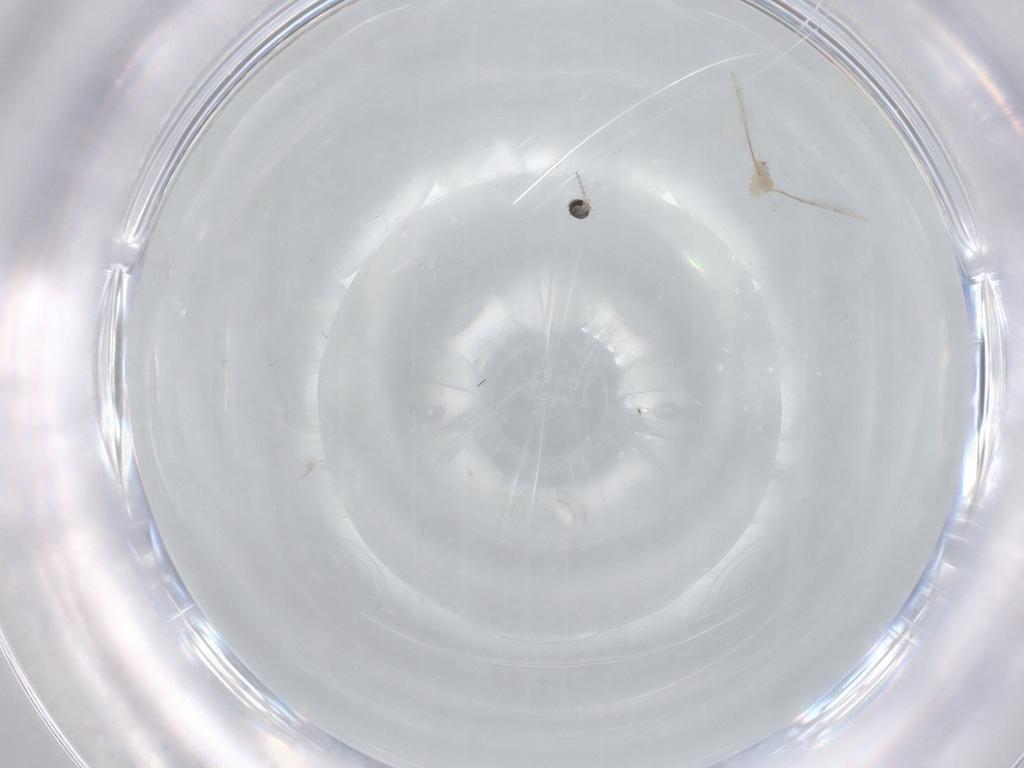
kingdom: Animalia
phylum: Arthropoda
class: Insecta
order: Diptera
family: Cecidomyiidae
